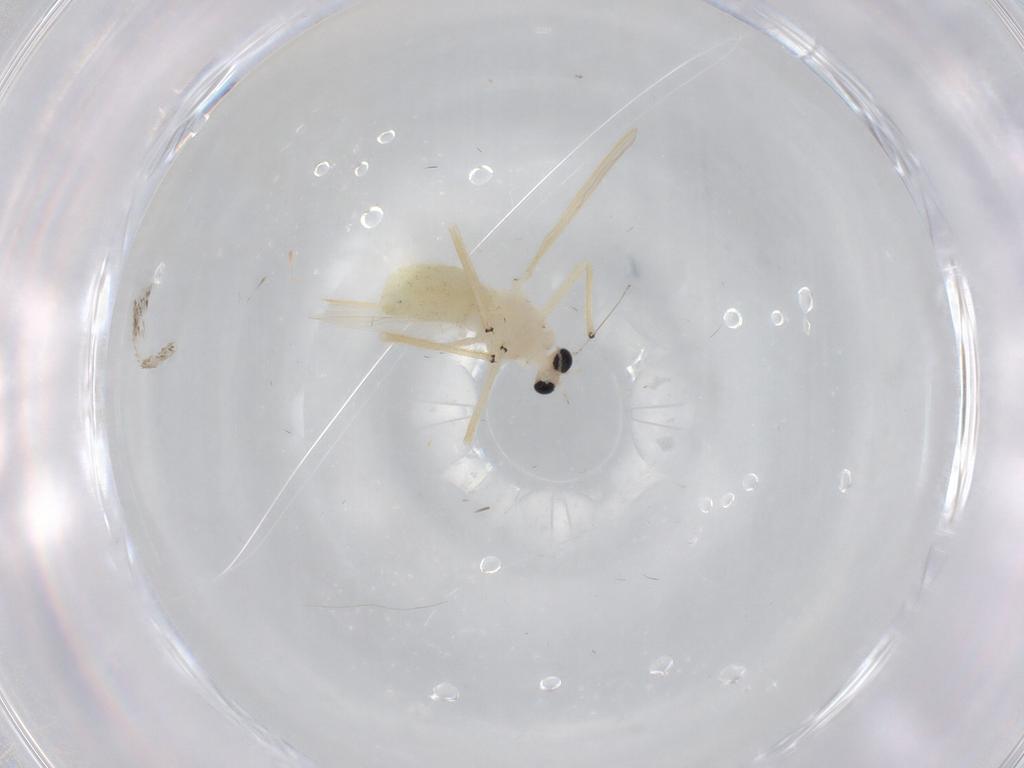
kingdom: Animalia
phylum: Arthropoda
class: Insecta
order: Diptera
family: Chironomidae
